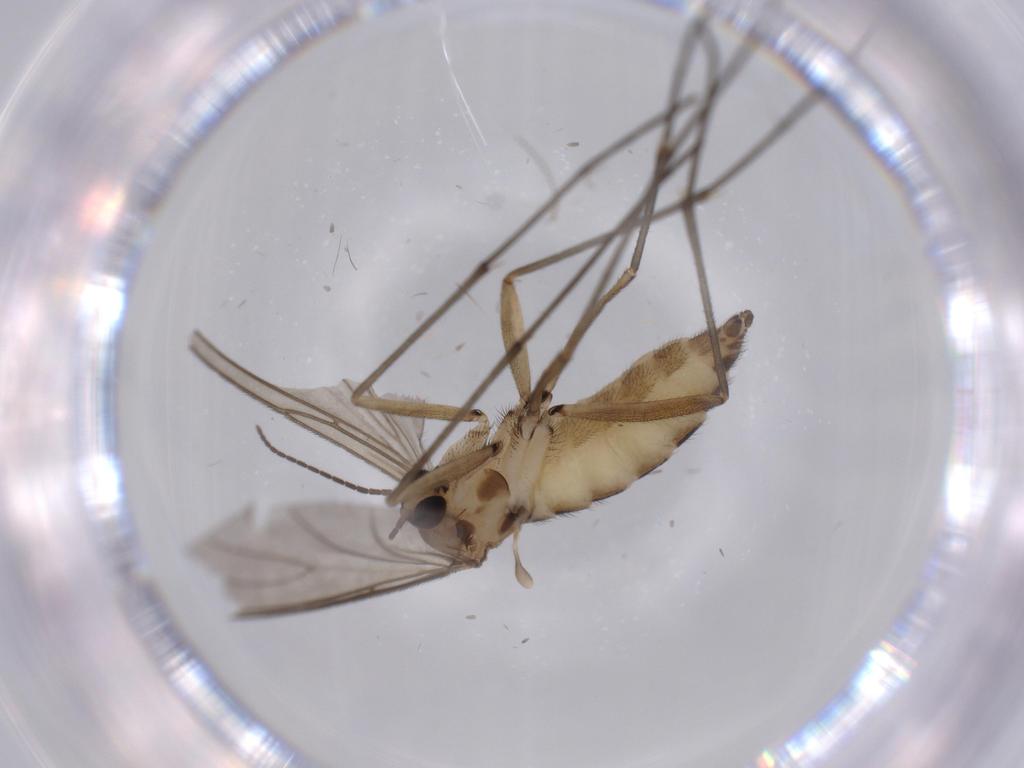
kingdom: Animalia
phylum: Arthropoda
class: Insecta
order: Diptera
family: Sciaridae
